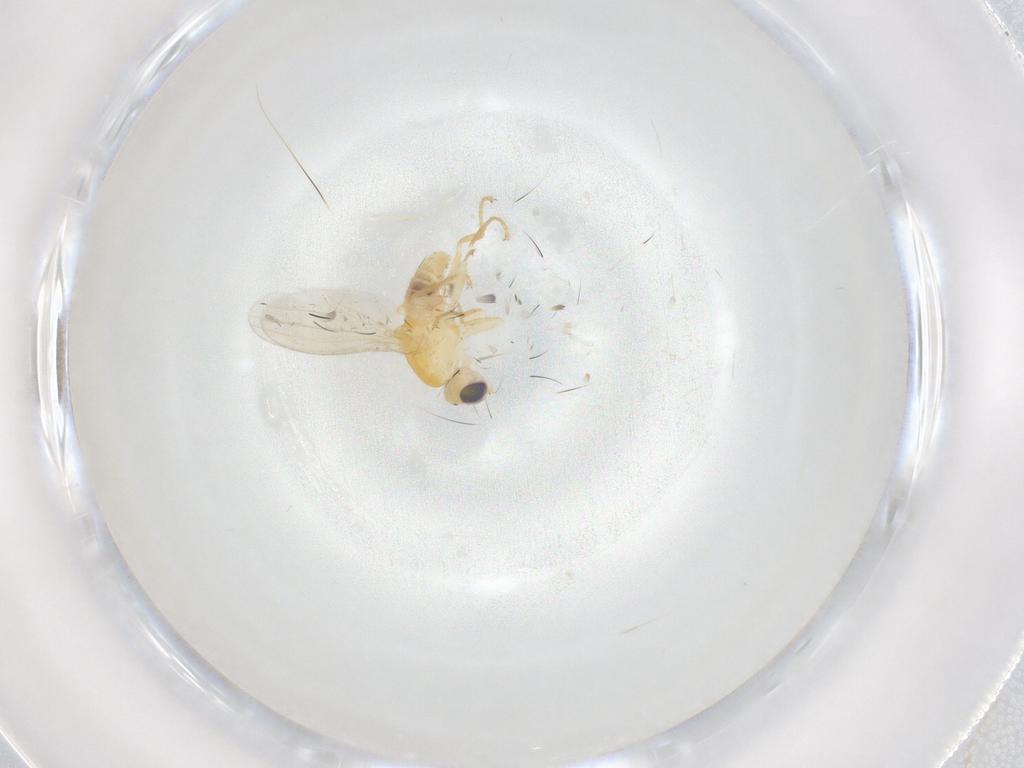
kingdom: Animalia
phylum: Arthropoda
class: Insecta
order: Diptera
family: Chyromyidae
